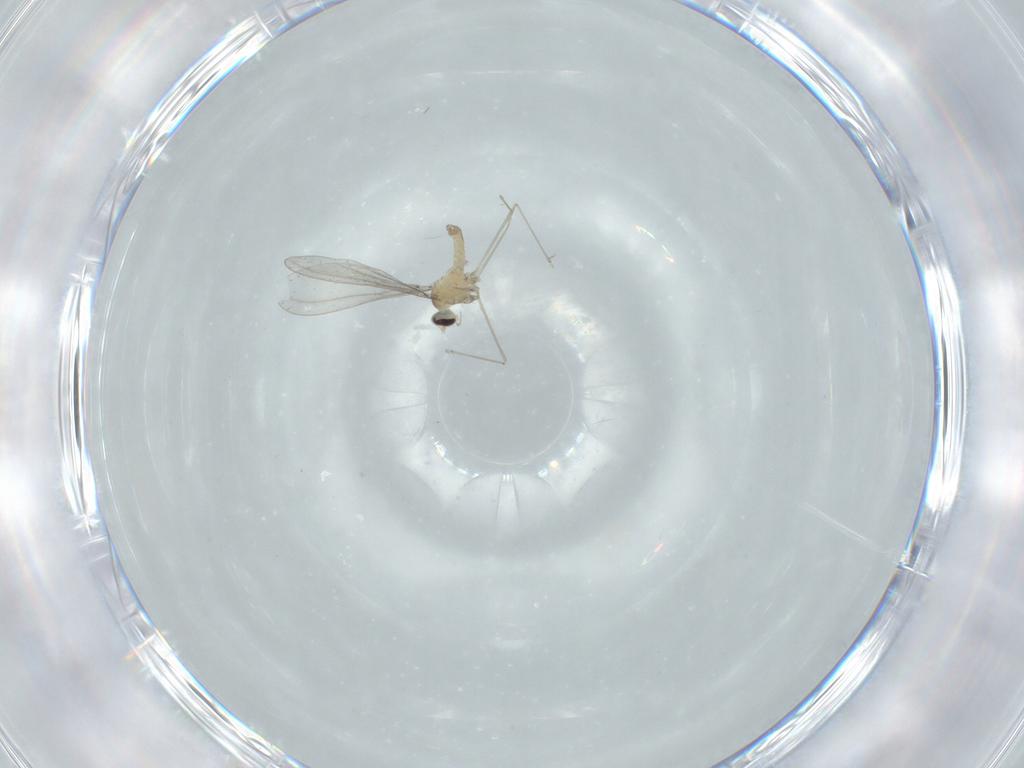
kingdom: Animalia
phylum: Arthropoda
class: Insecta
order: Diptera
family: Cecidomyiidae
